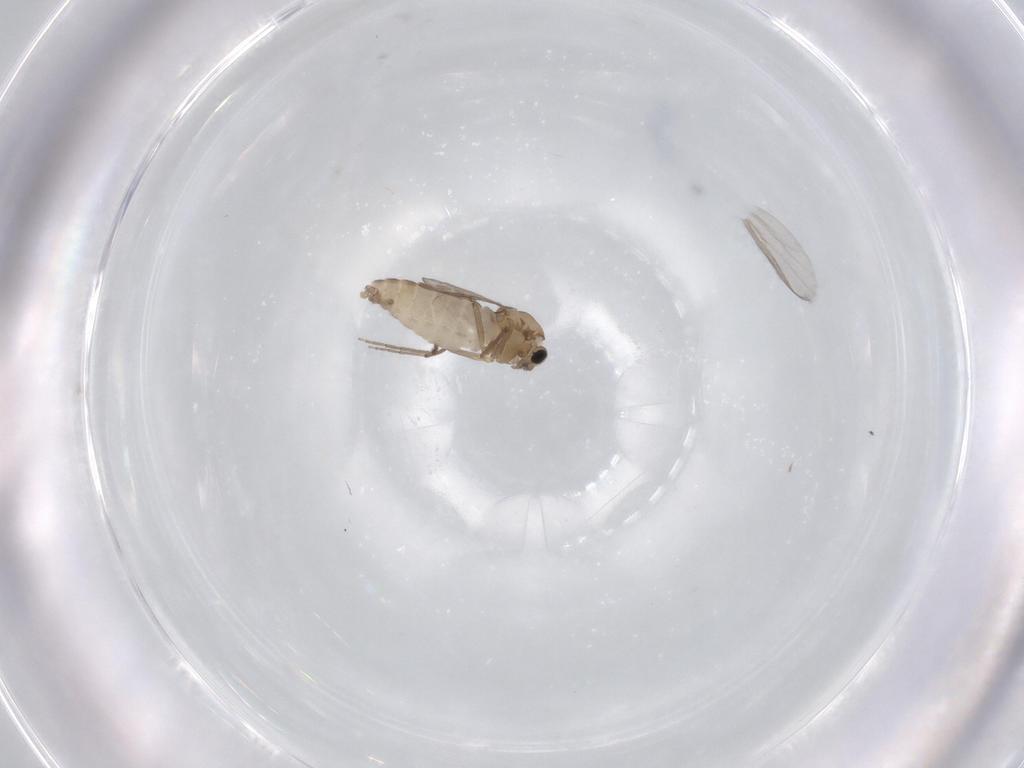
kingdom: Animalia
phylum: Arthropoda
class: Insecta
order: Diptera
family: Chironomidae
